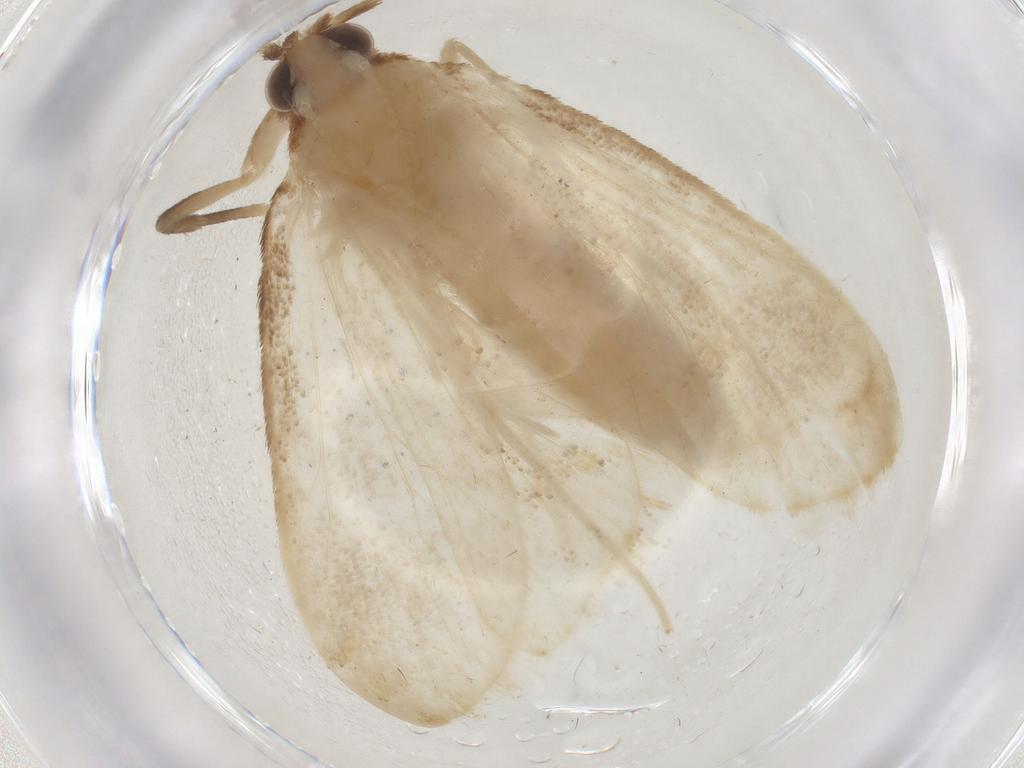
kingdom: Animalia
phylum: Arthropoda
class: Insecta
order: Lepidoptera
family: Crambidae
